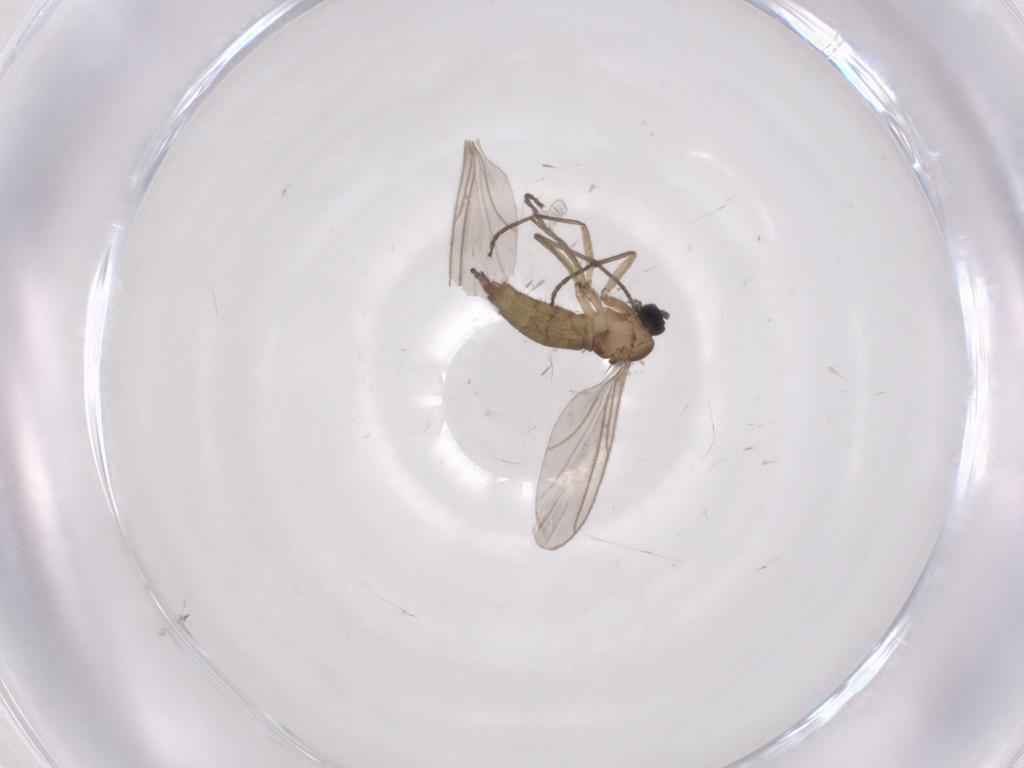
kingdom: Animalia
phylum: Arthropoda
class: Insecta
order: Diptera
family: Sciaridae
